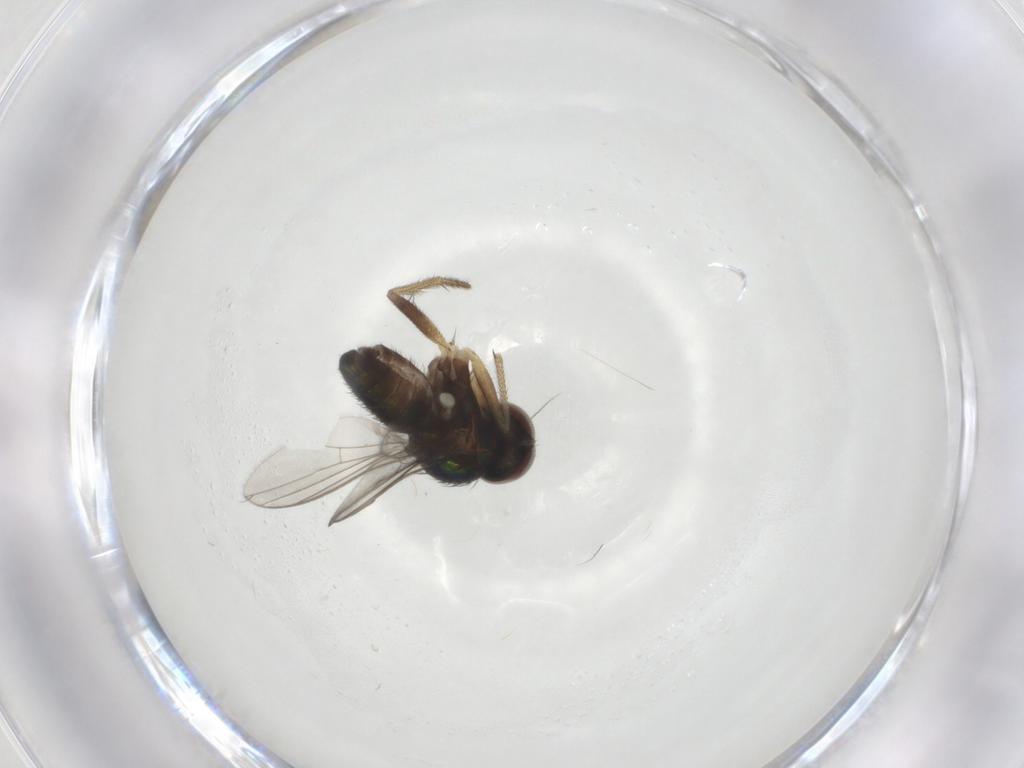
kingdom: Animalia
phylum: Arthropoda
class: Insecta
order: Diptera
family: Dolichopodidae
